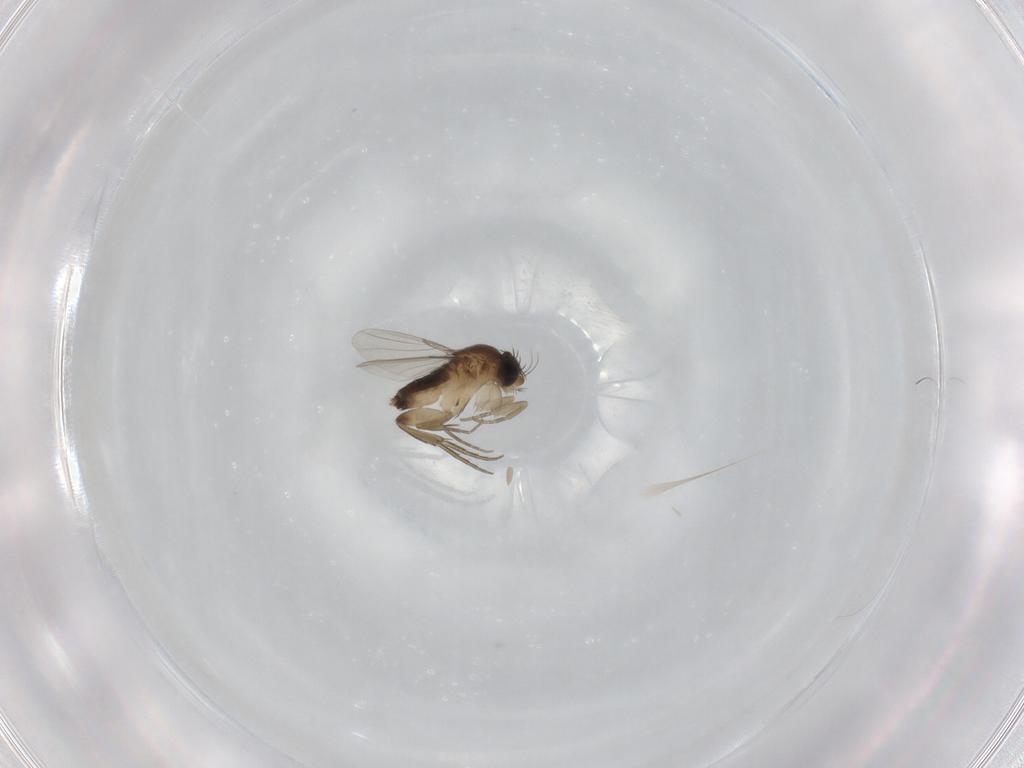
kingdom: Animalia
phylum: Arthropoda
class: Insecta
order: Diptera
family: Phoridae
